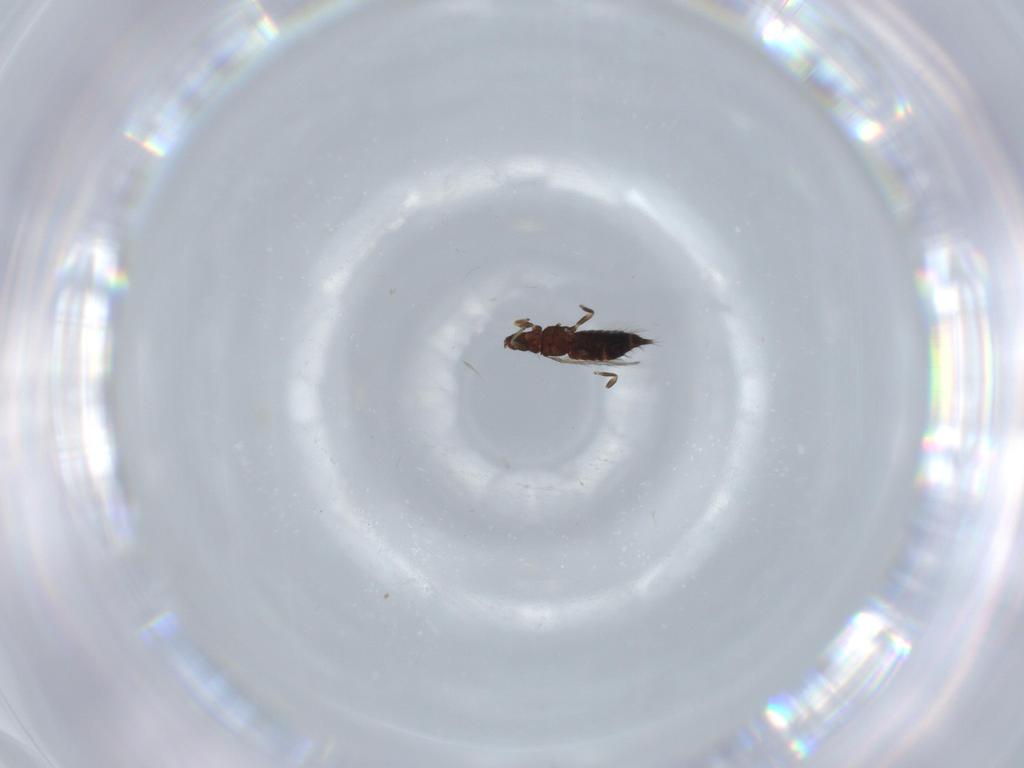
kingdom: Animalia
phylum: Arthropoda
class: Insecta
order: Thysanoptera
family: Phlaeothripidae
